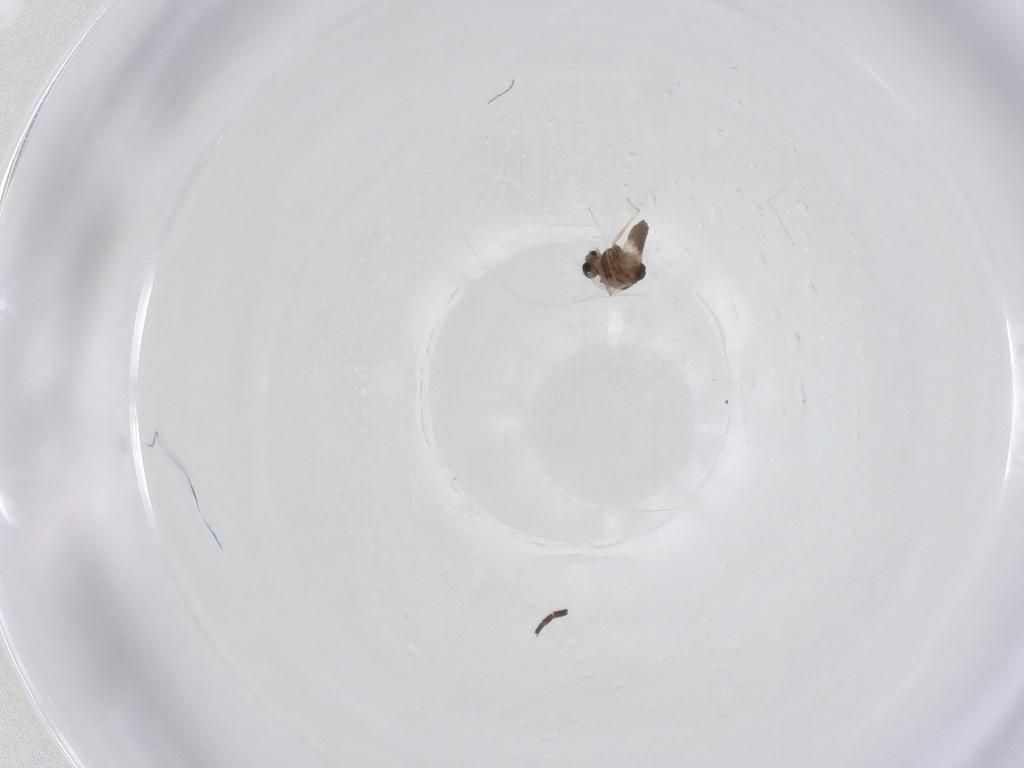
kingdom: Animalia
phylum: Arthropoda
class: Insecta
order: Diptera
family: Chironomidae
